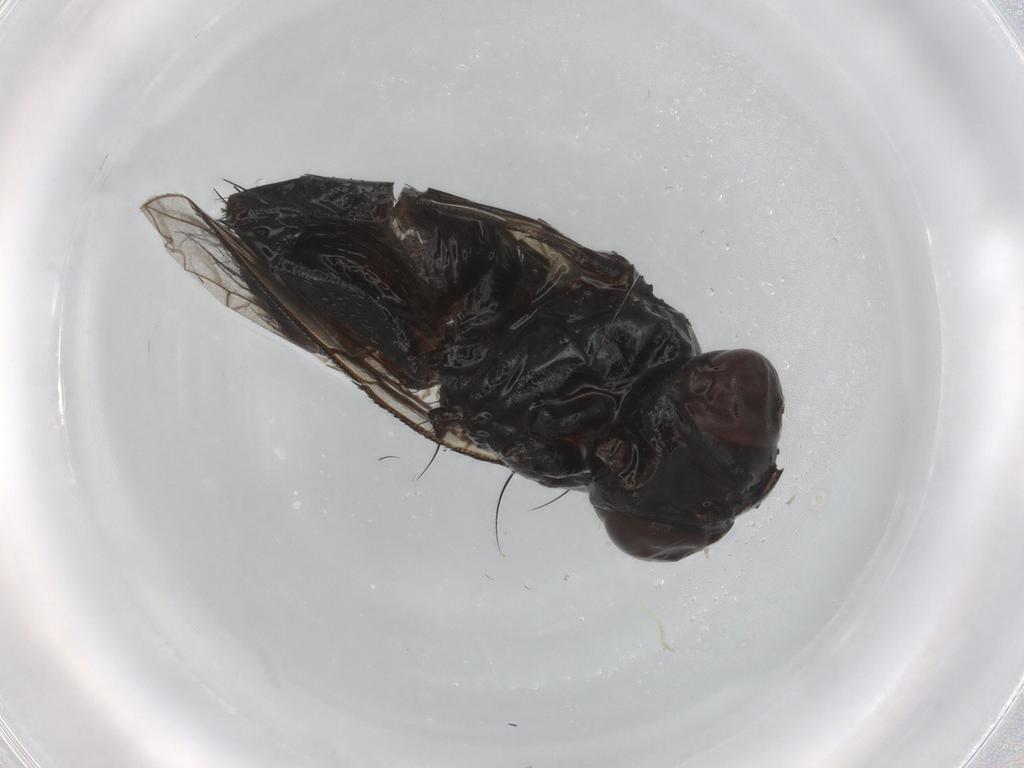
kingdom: Animalia
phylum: Arthropoda
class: Insecta
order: Diptera
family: Tachinidae
